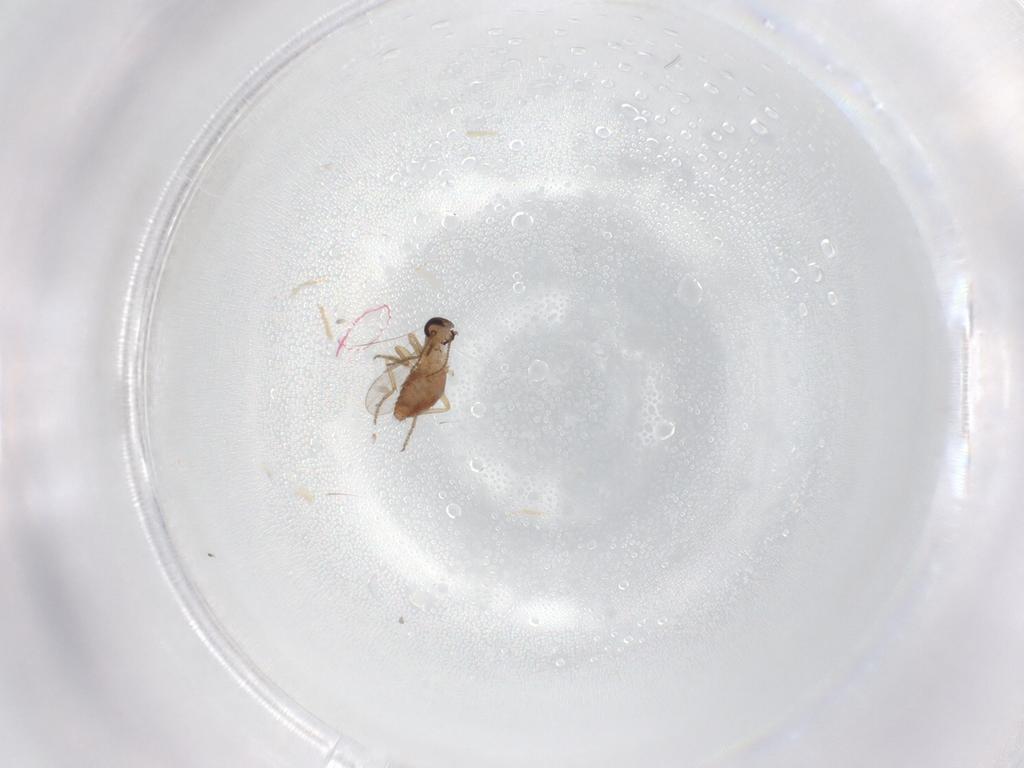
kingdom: Animalia
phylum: Arthropoda
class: Insecta
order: Diptera
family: Ceratopogonidae
